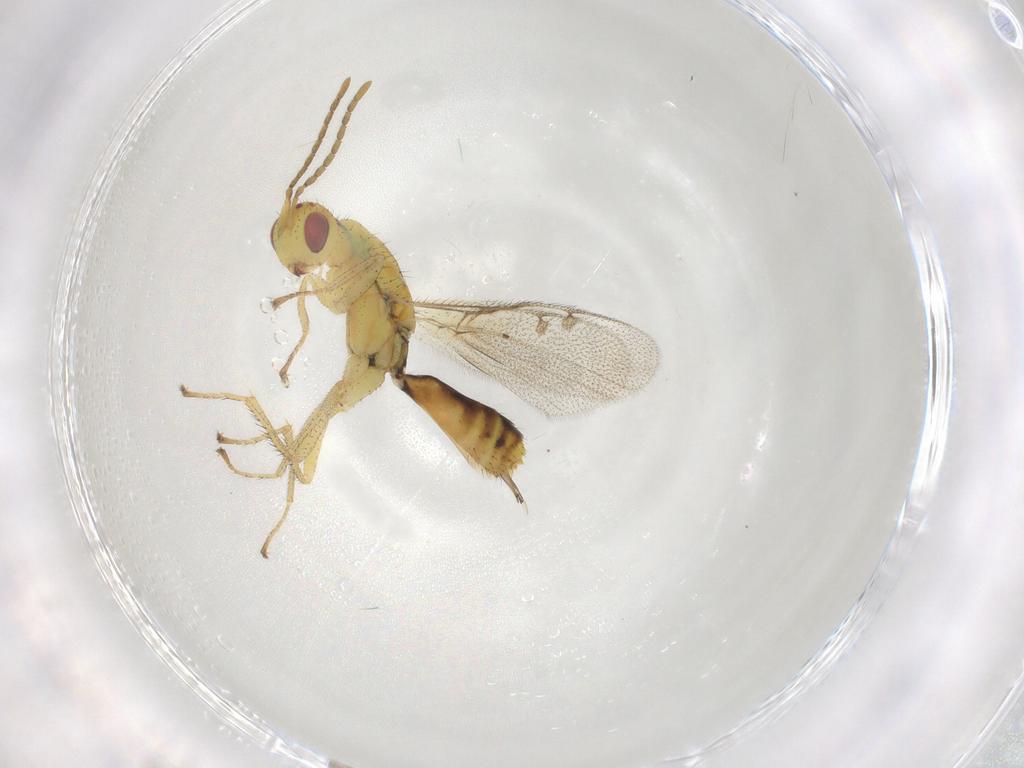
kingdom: Animalia
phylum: Arthropoda
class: Insecta
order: Hymenoptera
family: Megastigmidae
